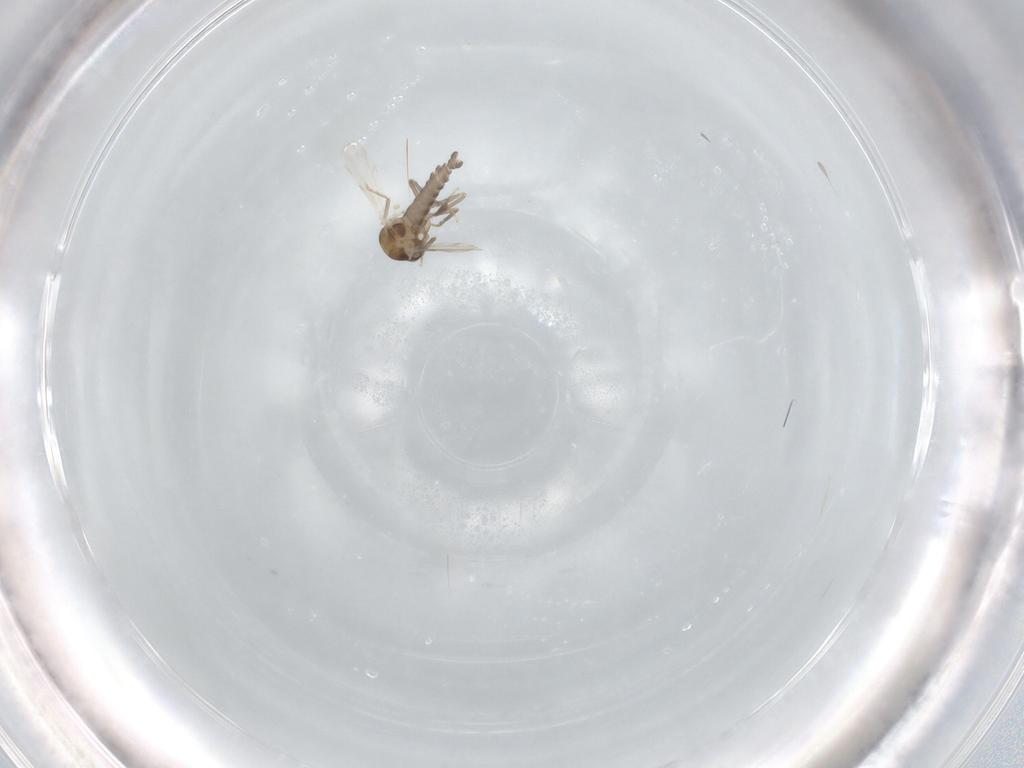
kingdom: Animalia
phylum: Arthropoda
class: Insecta
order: Diptera
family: Ceratopogonidae
